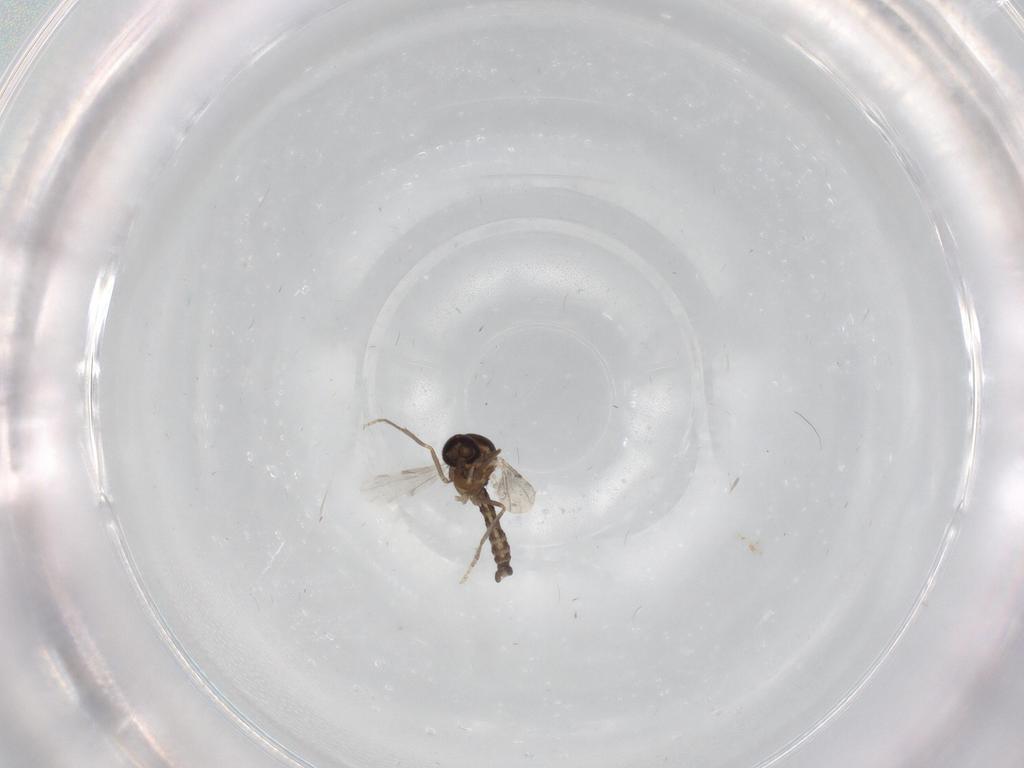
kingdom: Animalia
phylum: Arthropoda
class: Insecta
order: Diptera
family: Ceratopogonidae
